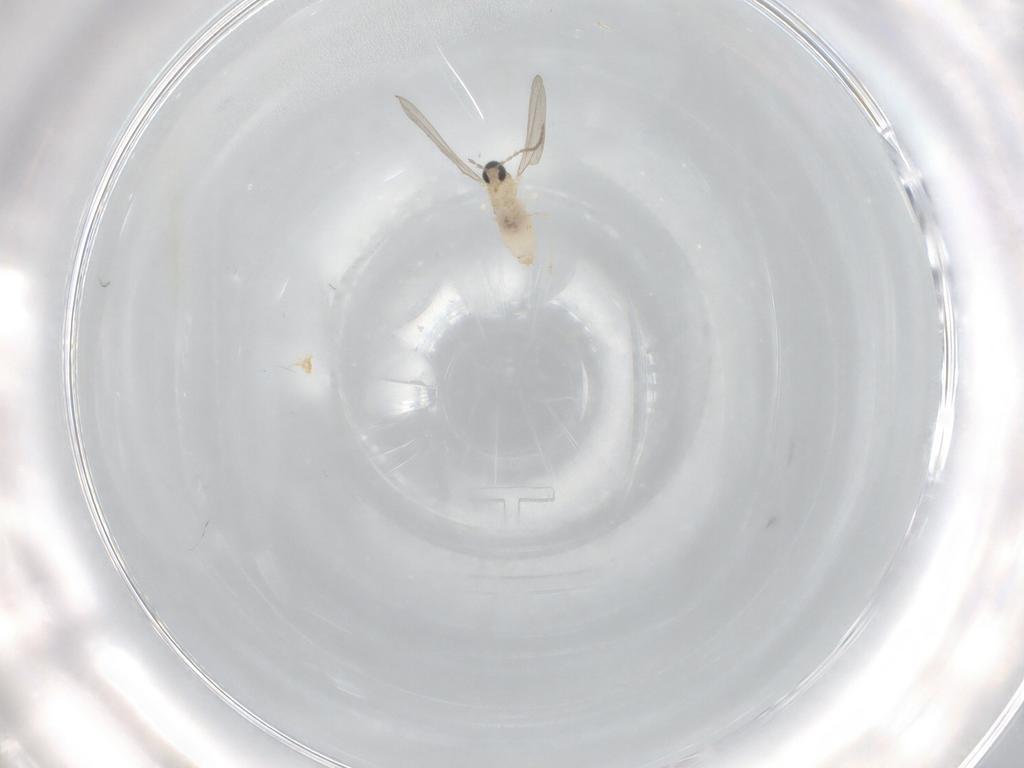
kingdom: Animalia
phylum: Arthropoda
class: Insecta
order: Diptera
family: Cecidomyiidae
